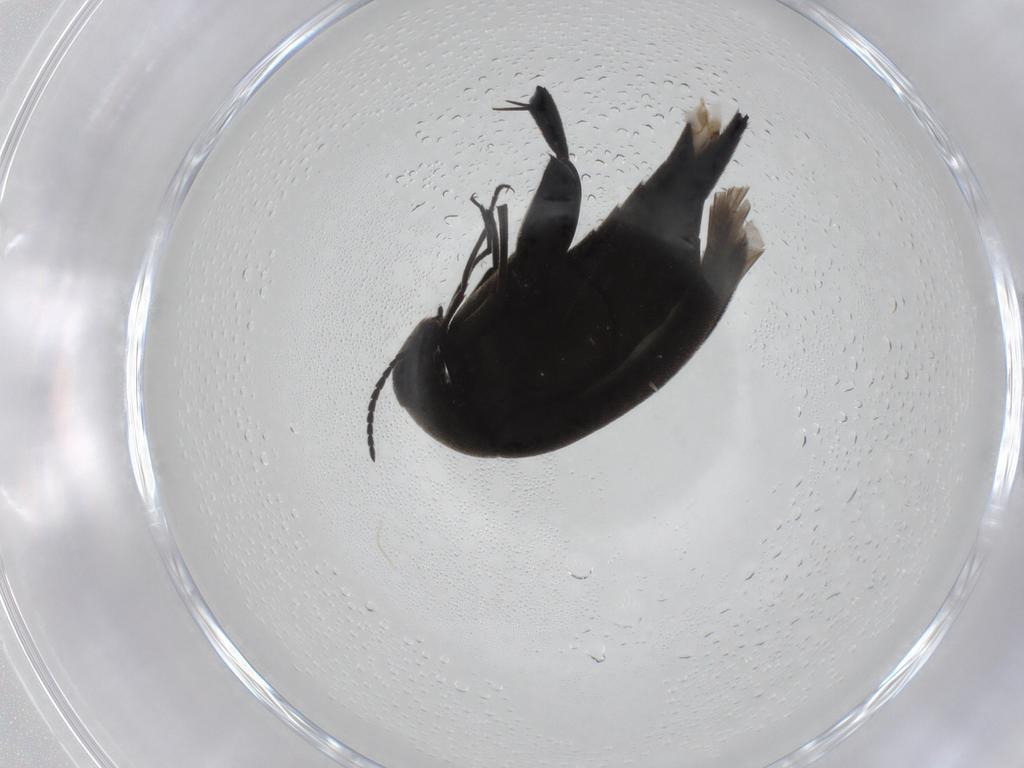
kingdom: Animalia
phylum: Arthropoda
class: Insecta
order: Coleoptera
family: Mordellidae
